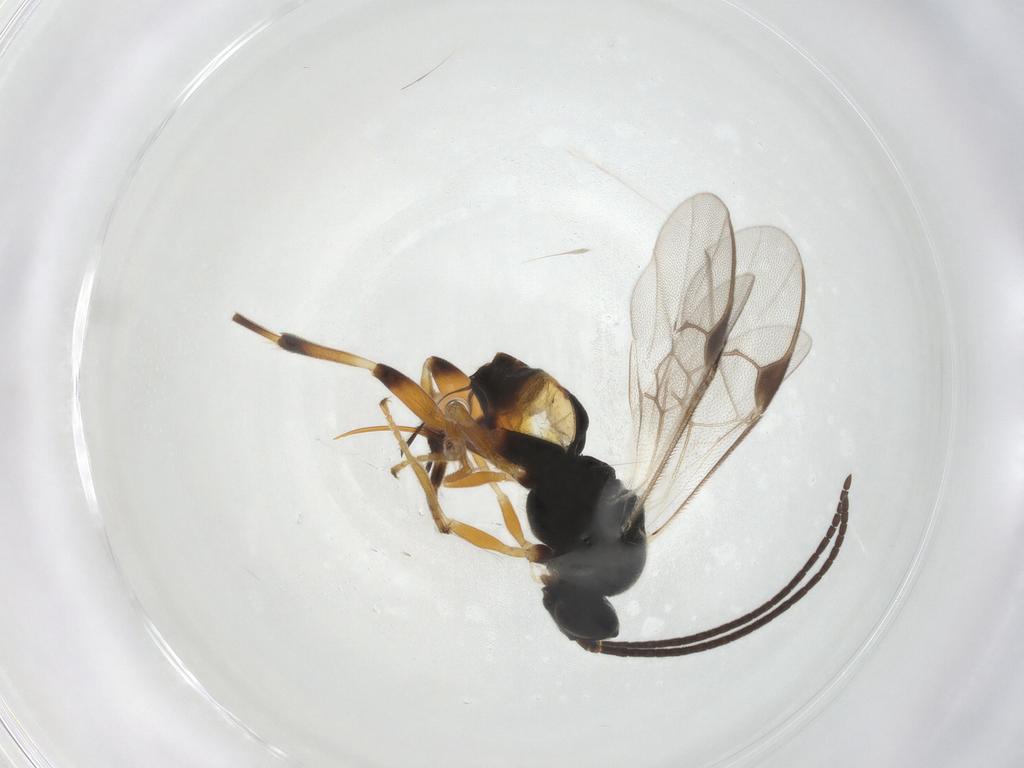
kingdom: Animalia
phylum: Arthropoda
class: Insecta
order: Hymenoptera
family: Braconidae
